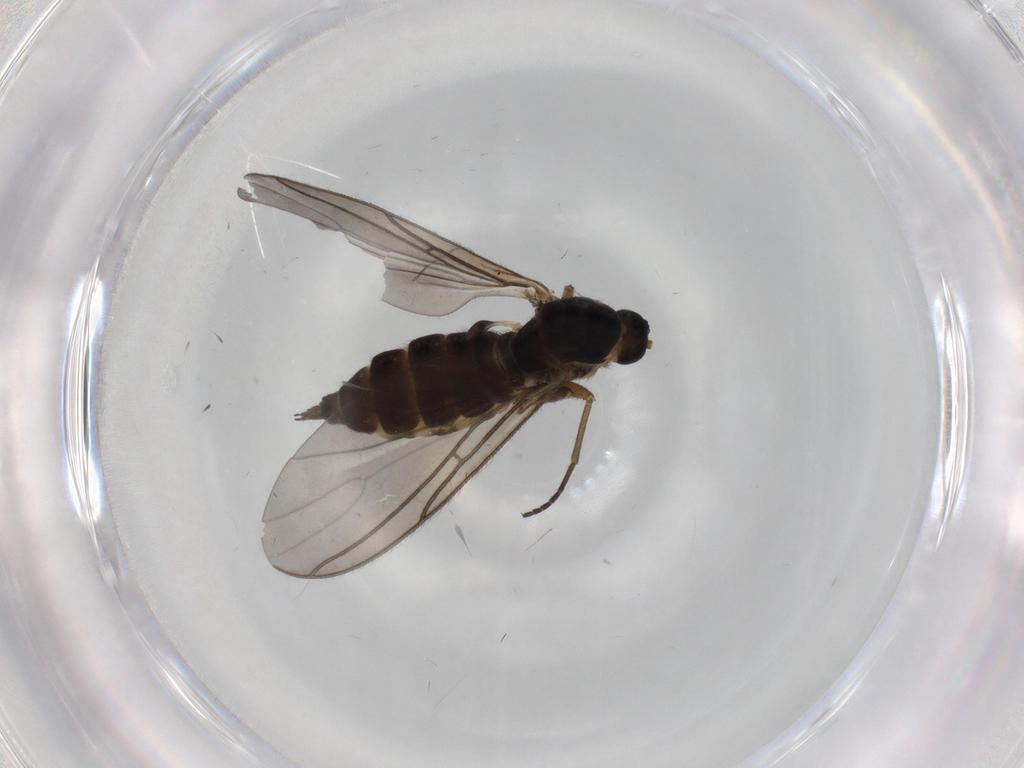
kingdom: Animalia
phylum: Arthropoda
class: Insecta
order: Diptera
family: Sciaridae
